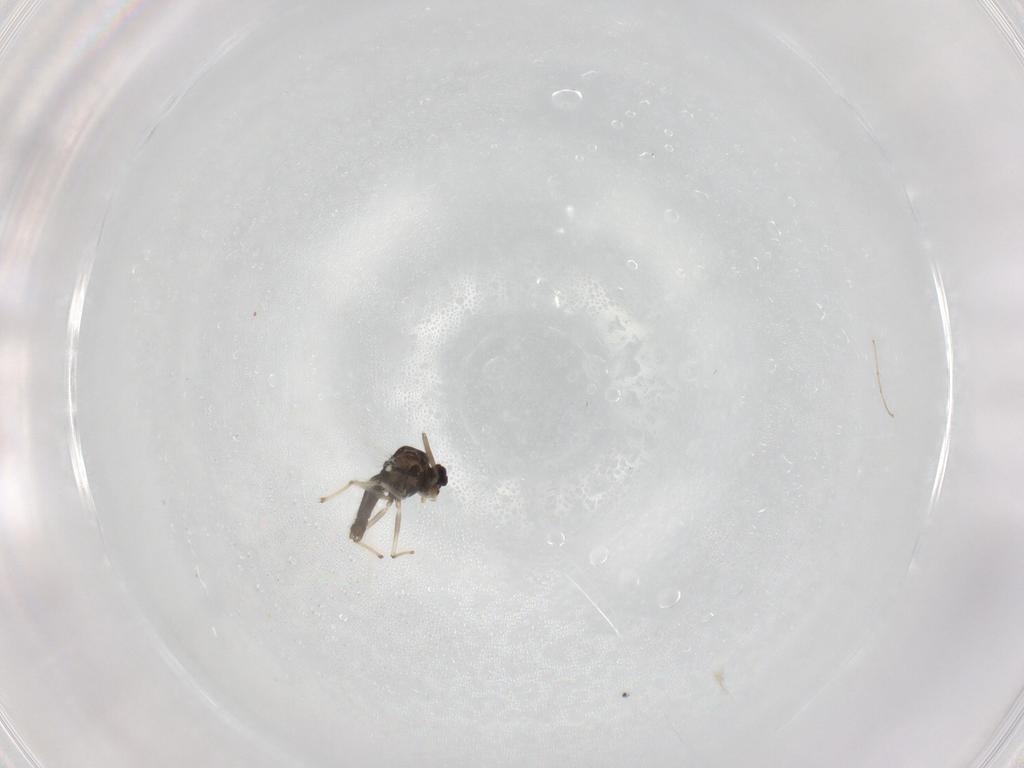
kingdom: Animalia
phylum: Arthropoda
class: Insecta
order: Diptera
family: Chironomidae
